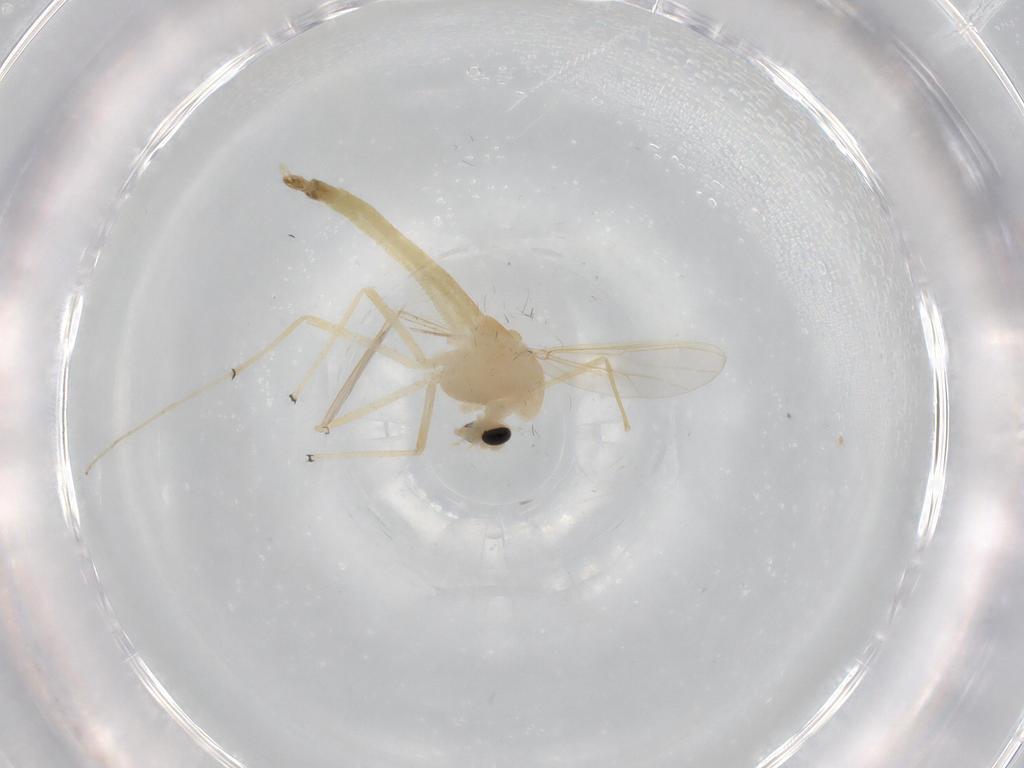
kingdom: Animalia
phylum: Arthropoda
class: Insecta
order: Diptera
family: Chironomidae
